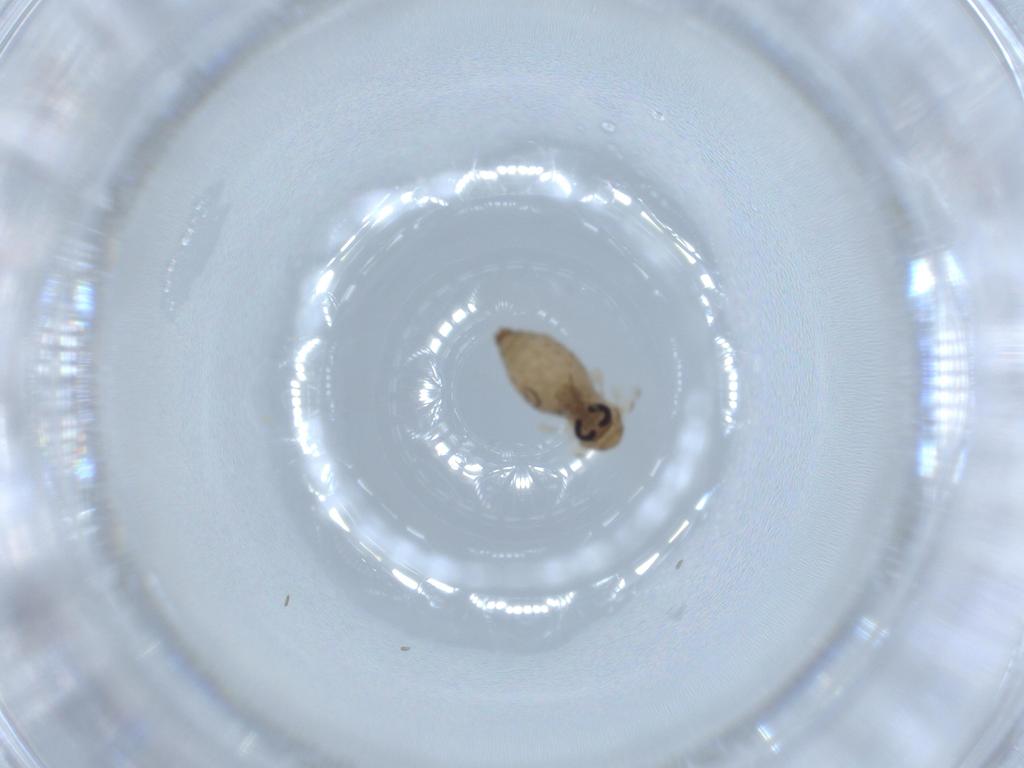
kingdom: Animalia
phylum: Arthropoda
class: Insecta
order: Diptera
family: Psychodidae
